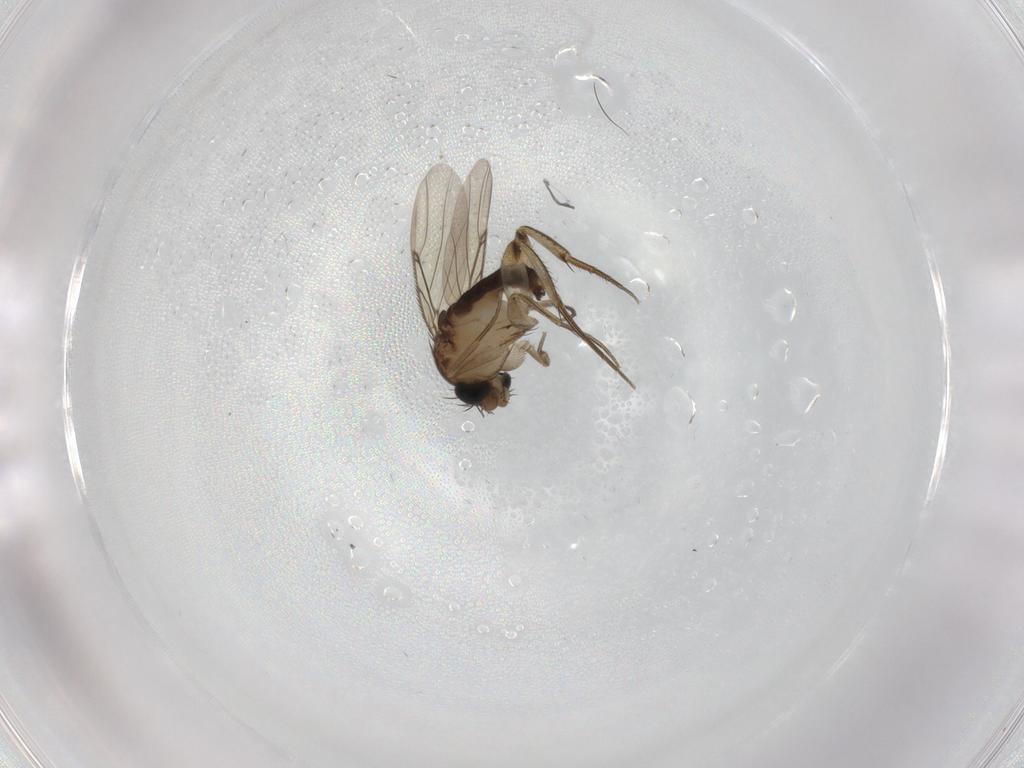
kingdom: Animalia
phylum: Arthropoda
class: Insecta
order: Diptera
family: Phoridae
